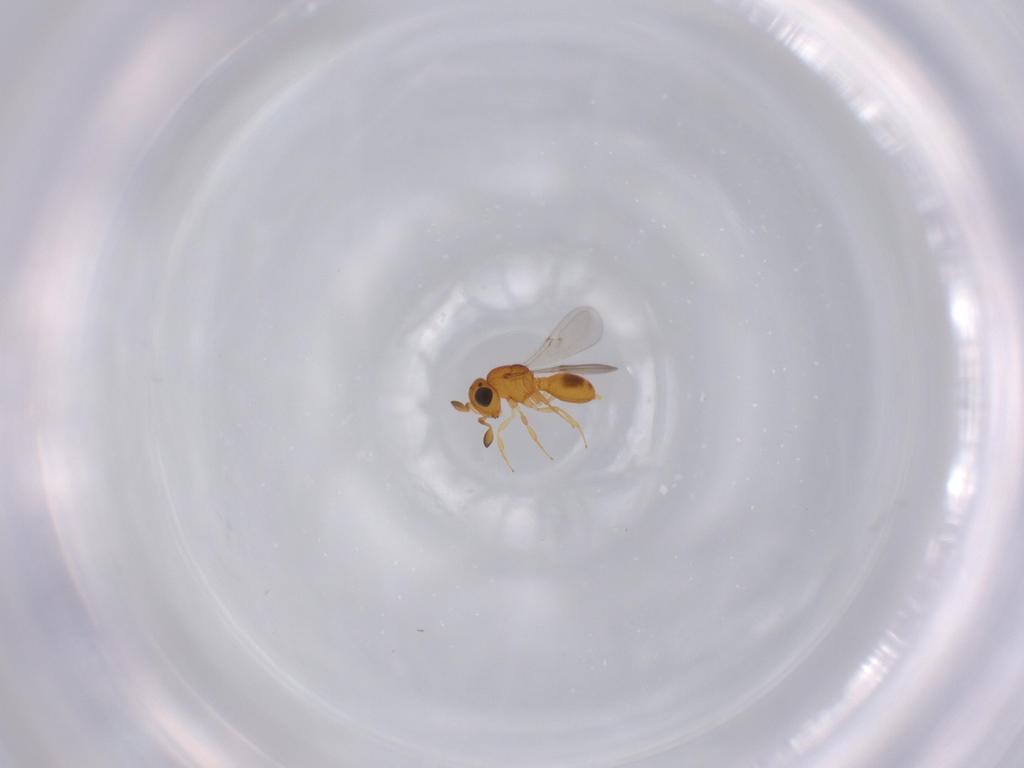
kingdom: Animalia
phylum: Arthropoda
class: Insecta
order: Hymenoptera
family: Scelionidae
